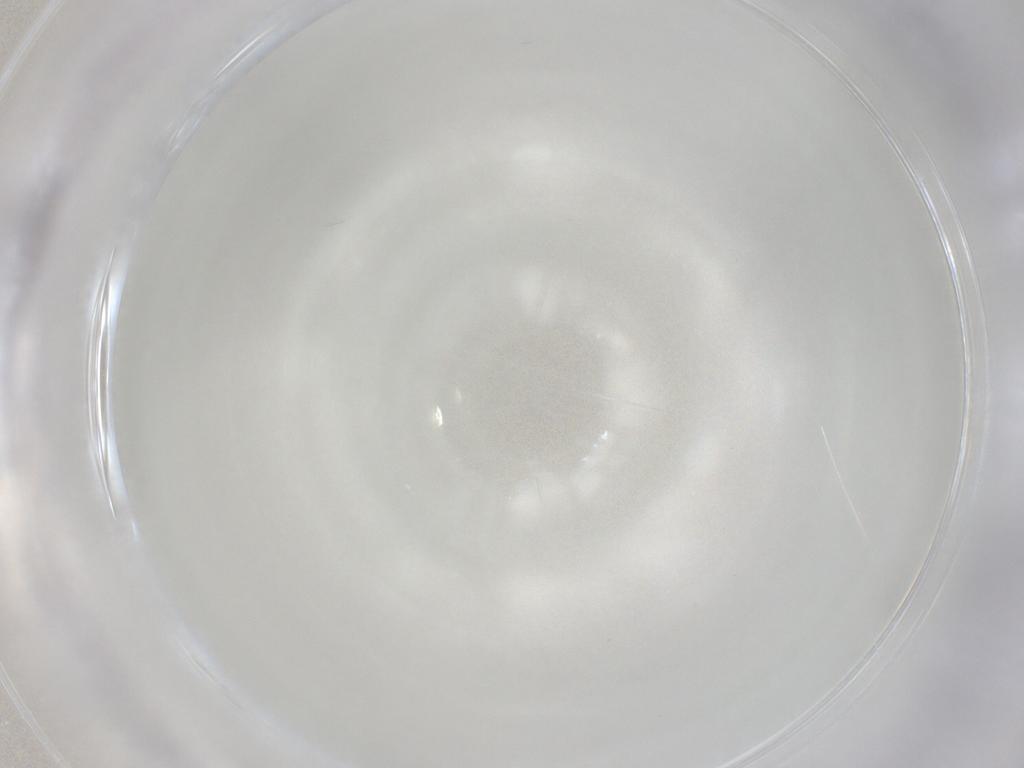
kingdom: Animalia
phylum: Arthropoda
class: Insecta
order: Diptera
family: Cecidomyiidae
